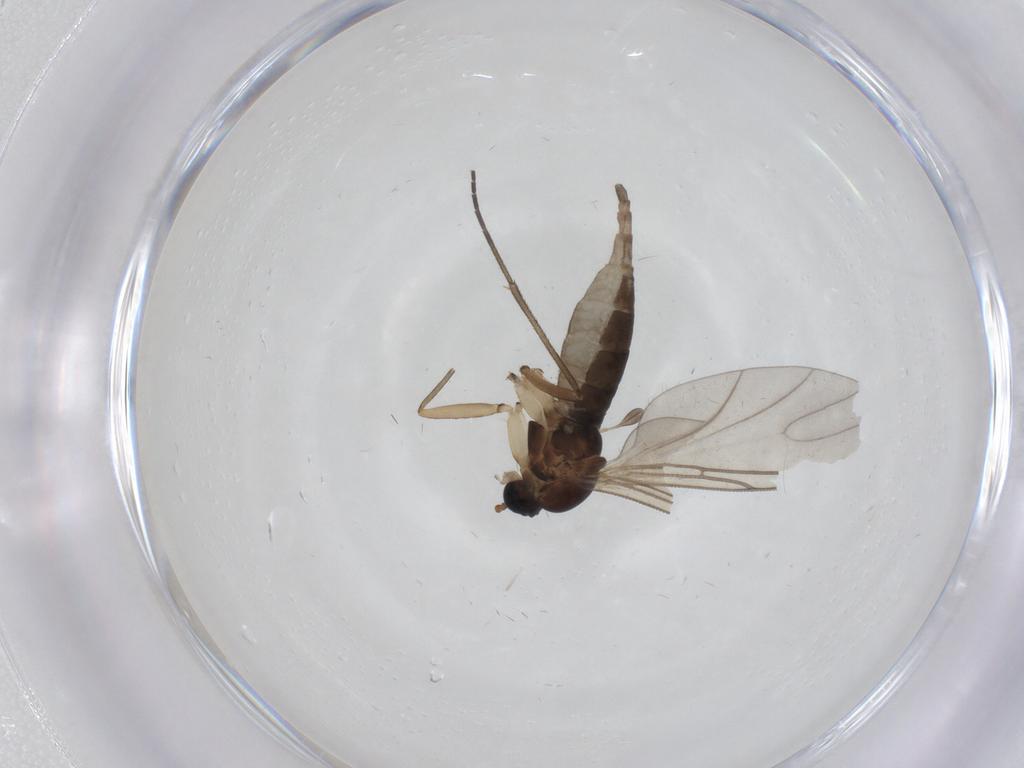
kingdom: Animalia
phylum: Arthropoda
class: Insecta
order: Diptera
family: Sciaridae
